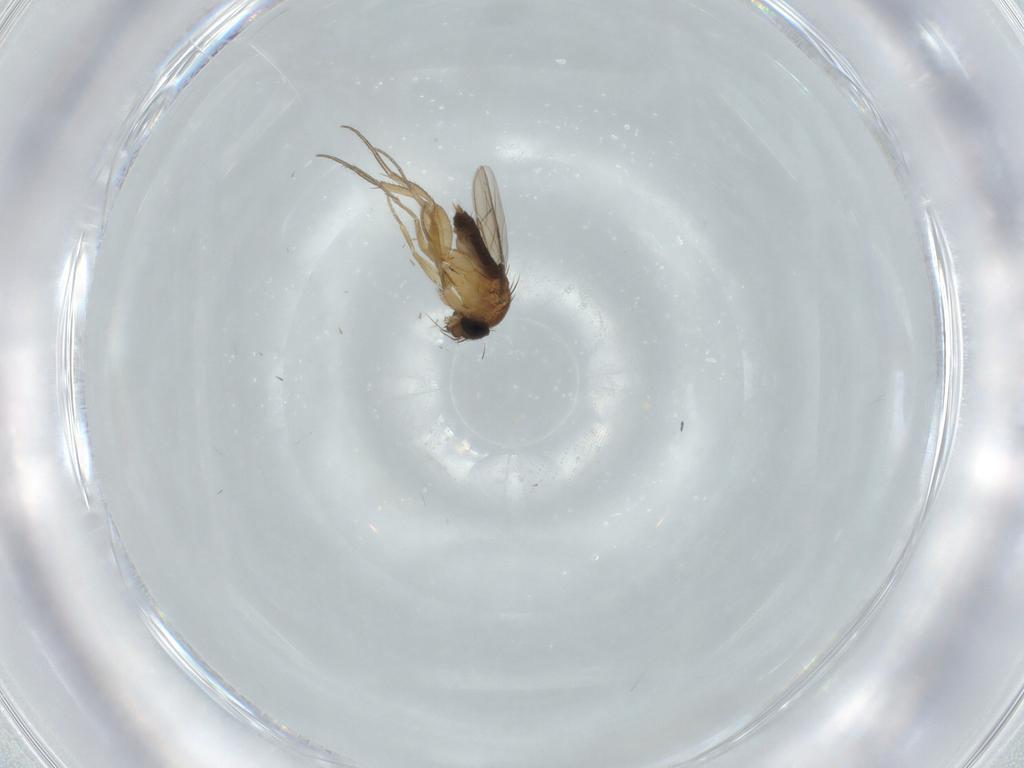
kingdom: Animalia
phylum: Arthropoda
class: Insecta
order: Diptera
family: Phoridae
